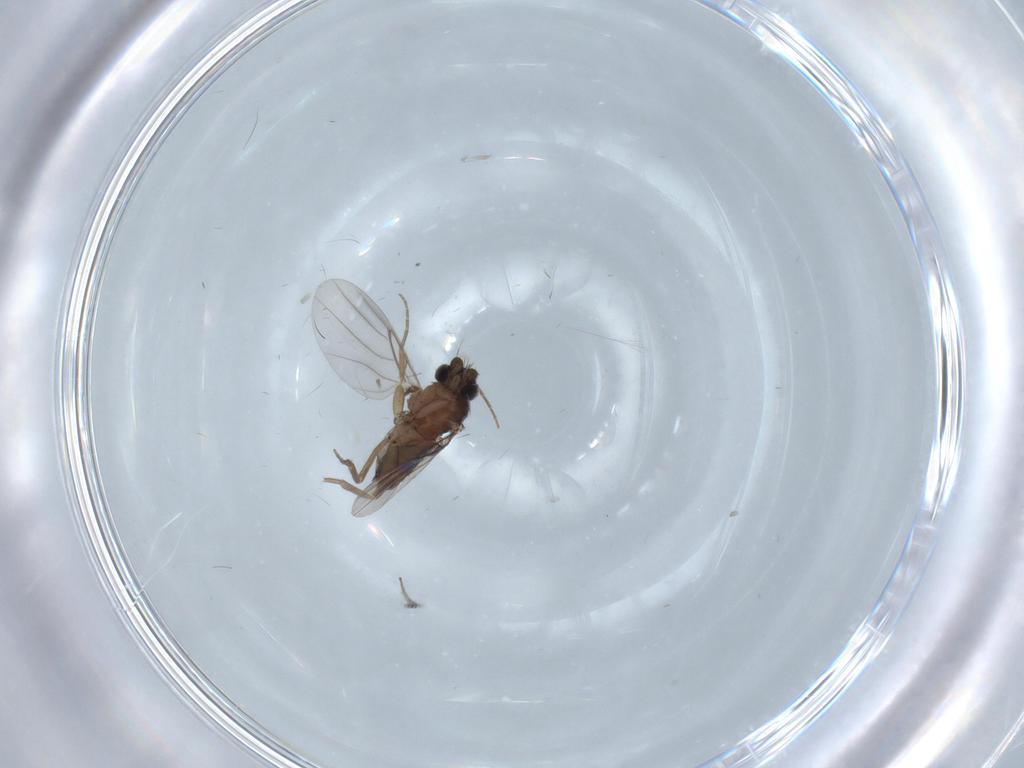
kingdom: Animalia
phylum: Arthropoda
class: Insecta
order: Diptera
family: Phoridae
